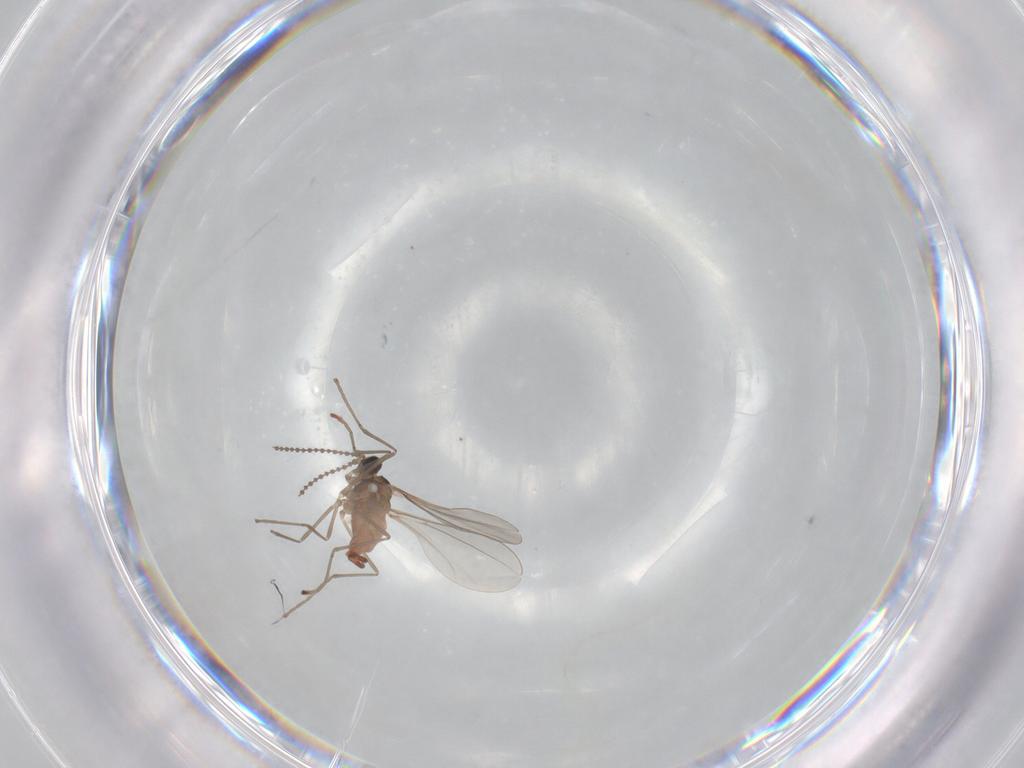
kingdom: Animalia
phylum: Arthropoda
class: Insecta
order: Diptera
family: Cecidomyiidae
